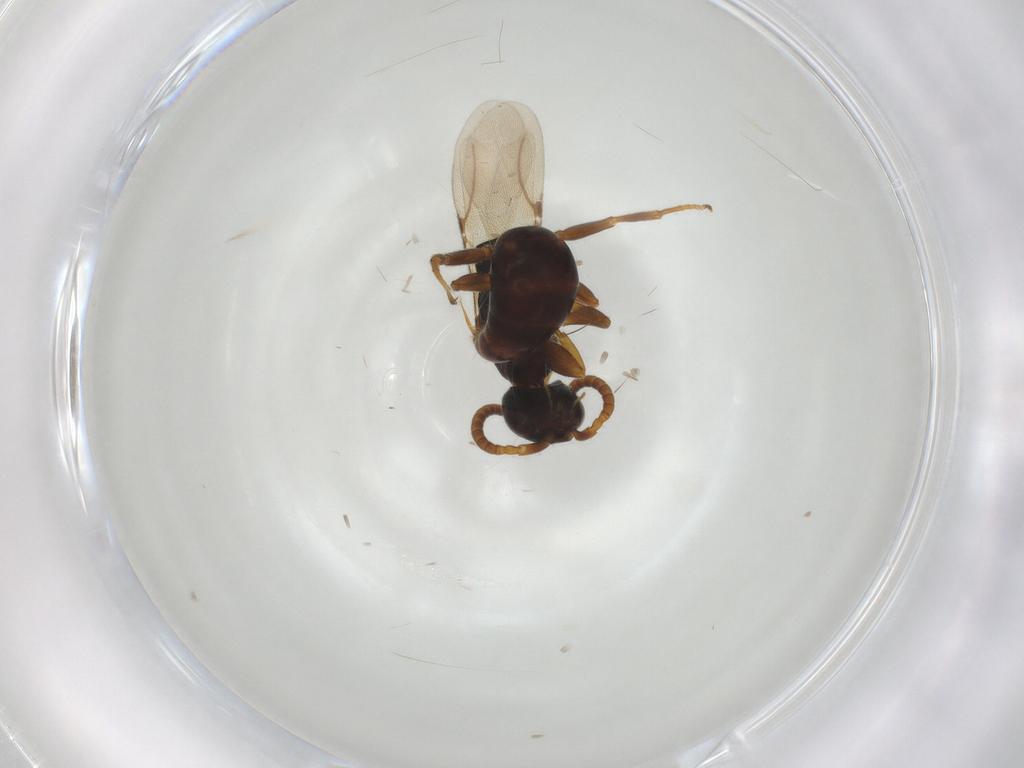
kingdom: Animalia
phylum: Arthropoda
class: Insecta
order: Hymenoptera
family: Bethylidae
